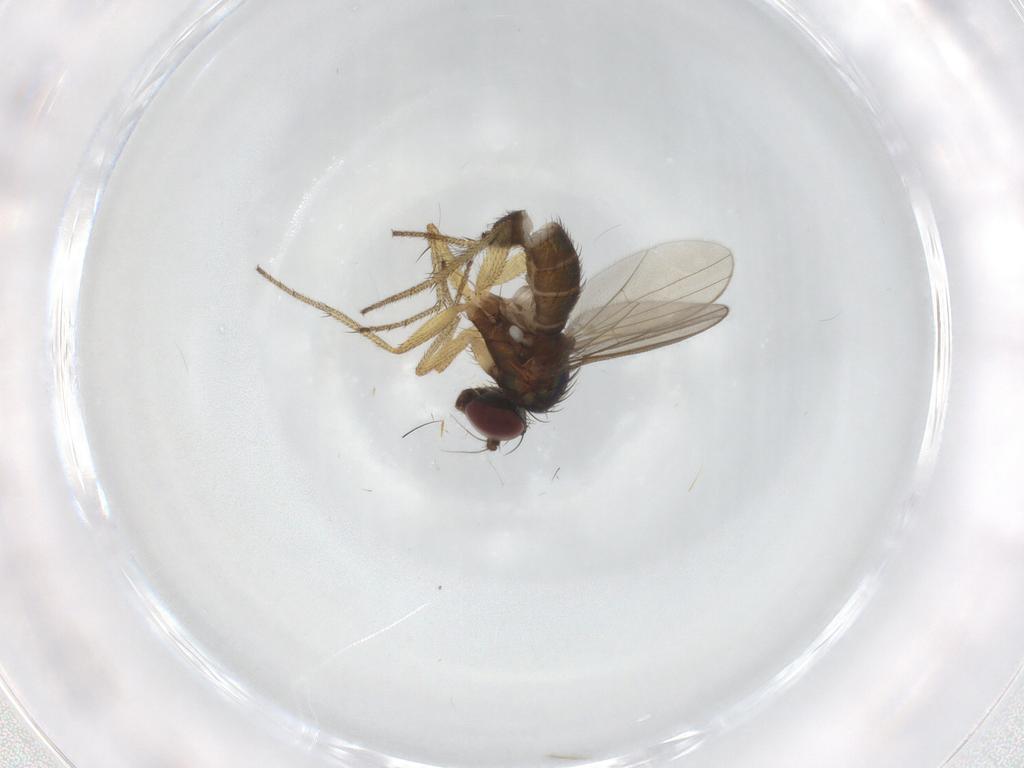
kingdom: Animalia
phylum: Arthropoda
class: Insecta
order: Diptera
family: Dolichopodidae
